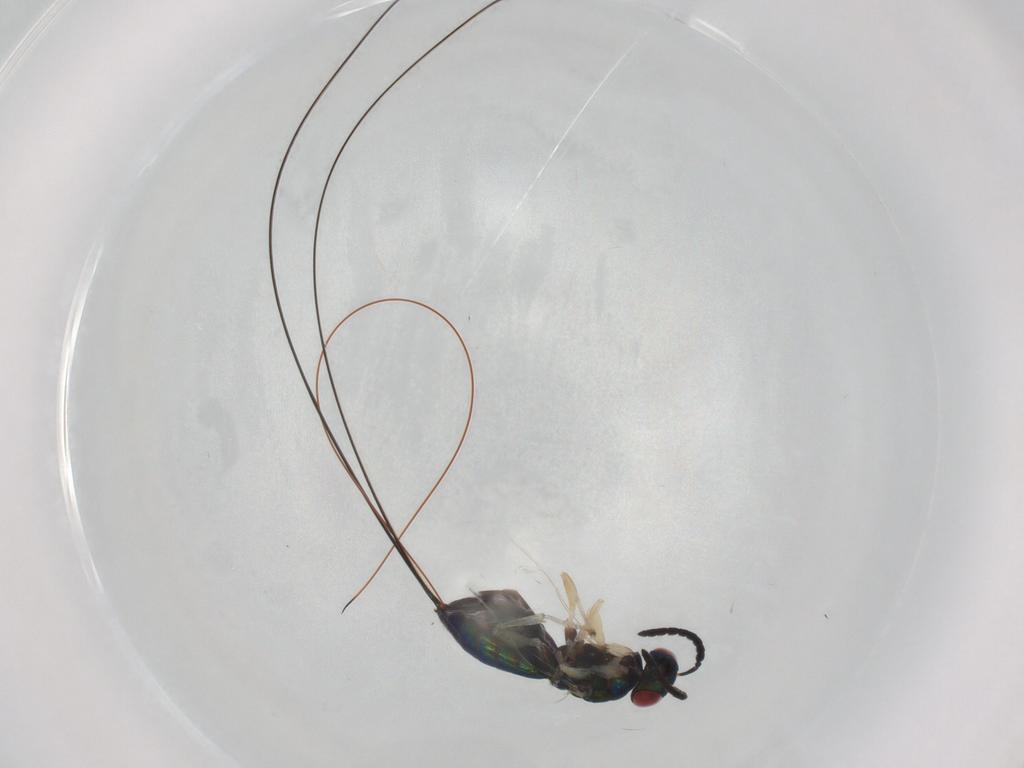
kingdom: Animalia
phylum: Arthropoda
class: Insecta
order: Hymenoptera
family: Agaonidae
